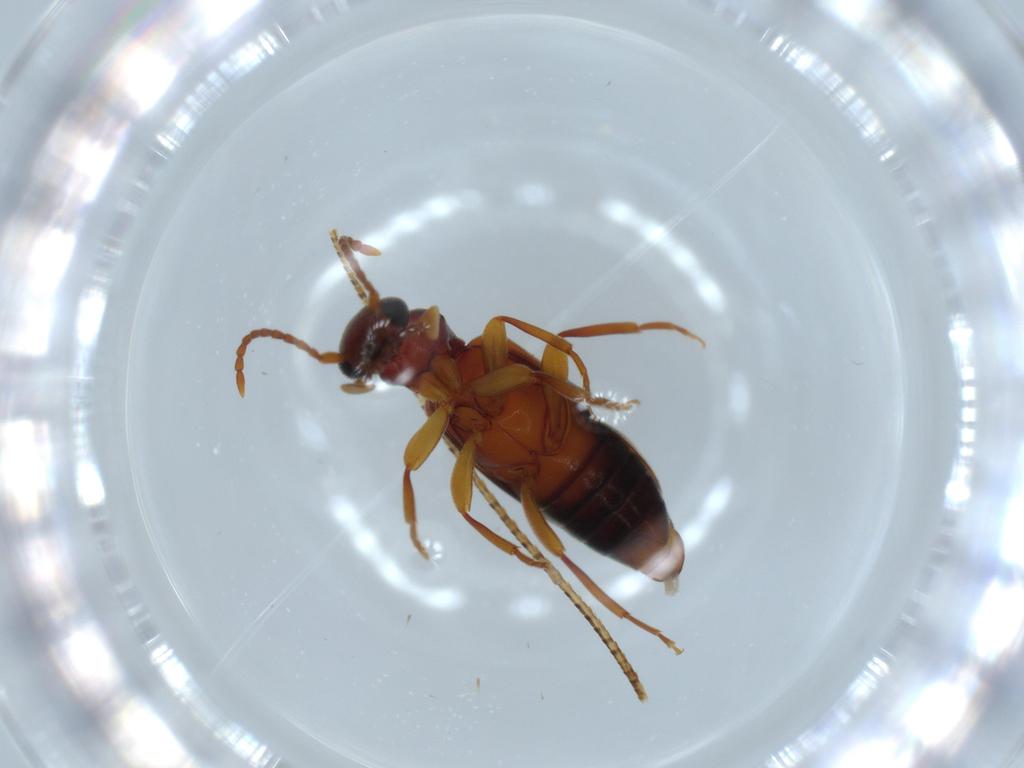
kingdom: Animalia
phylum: Arthropoda
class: Insecta
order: Coleoptera
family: Anthicidae
